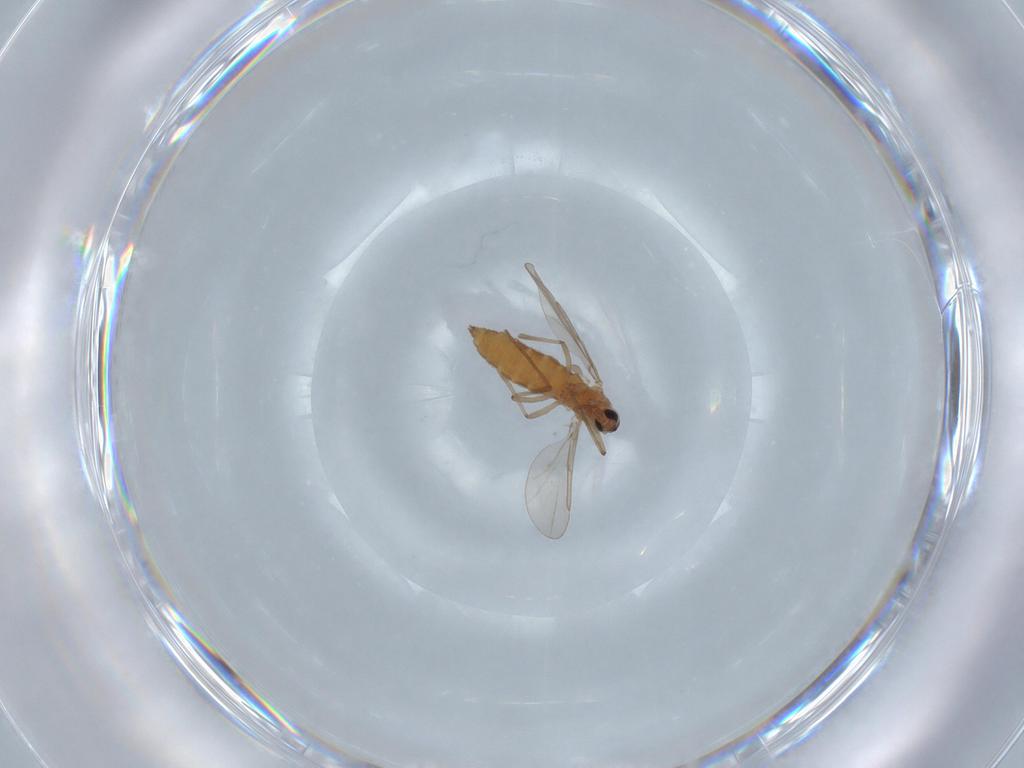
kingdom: Animalia
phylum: Arthropoda
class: Insecta
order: Diptera
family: Cecidomyiidae
